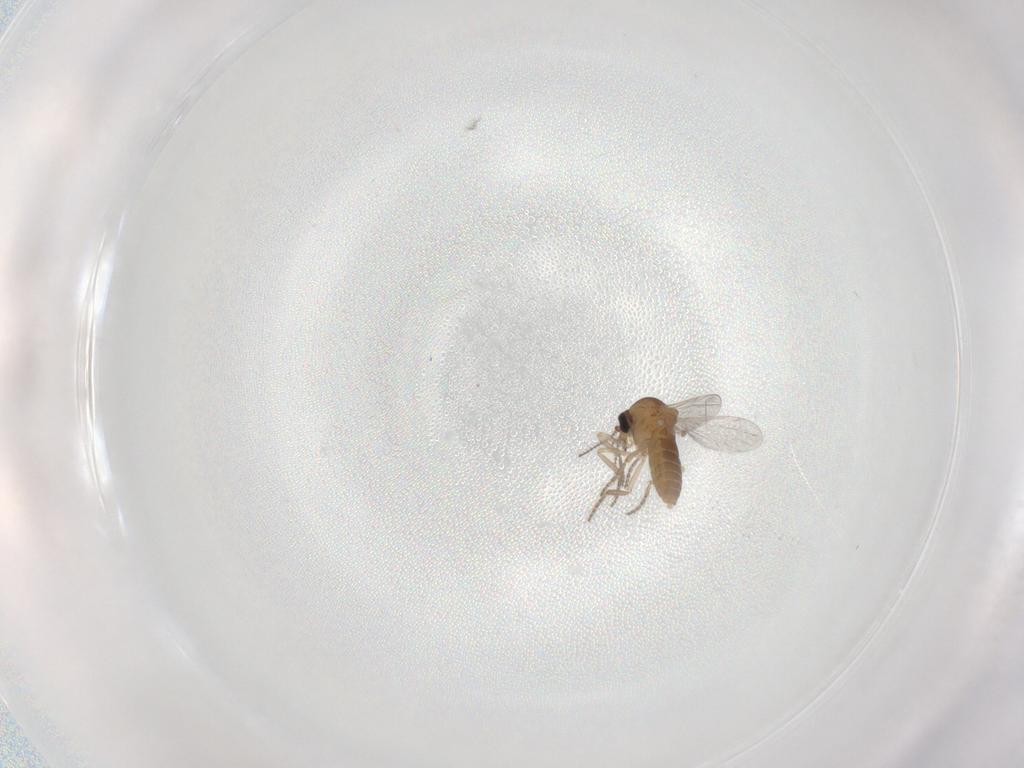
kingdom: Animalia
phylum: Arthropoda
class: Insecta
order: Diptera
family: Ceratopogonidae
